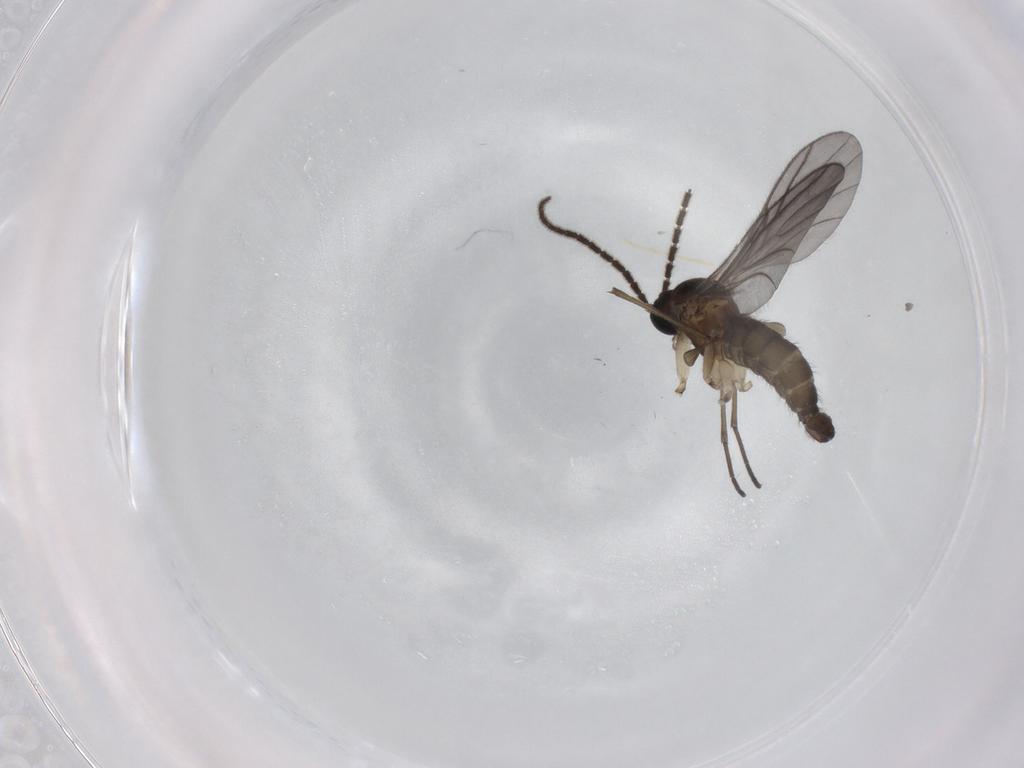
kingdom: Animalia
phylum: Arthropoda
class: Insecta
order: Diptera
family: Sciaridae
